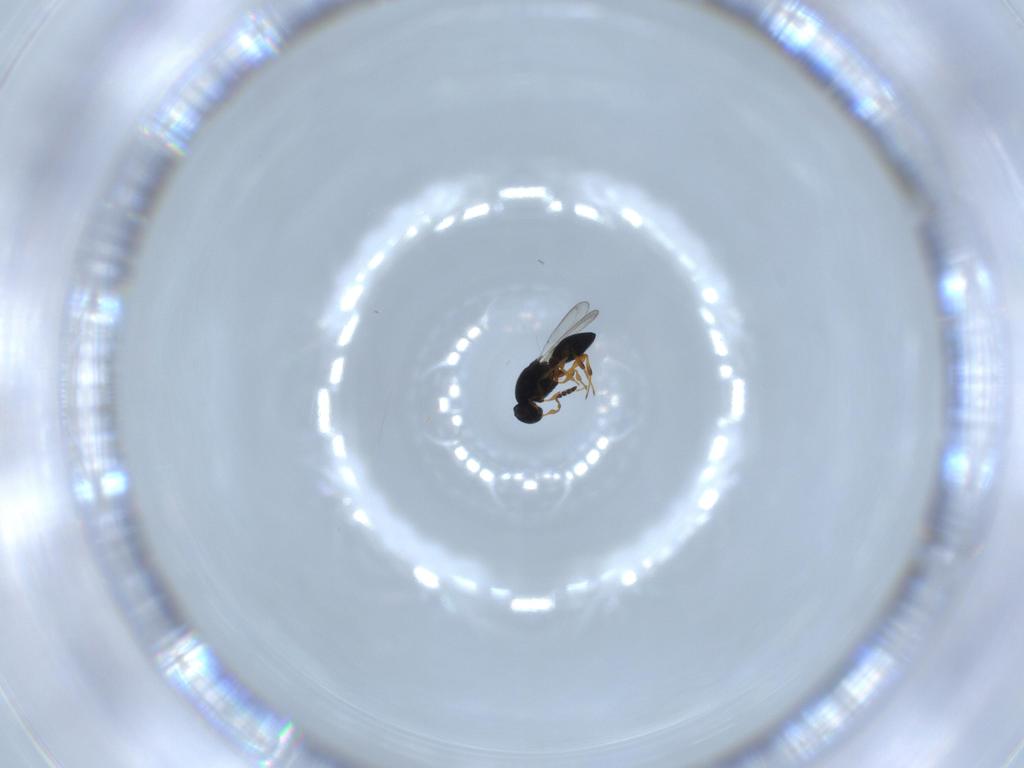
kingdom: Animalia
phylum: Arthropoda
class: Insecta
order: Hymenoptera
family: Platygastridae
